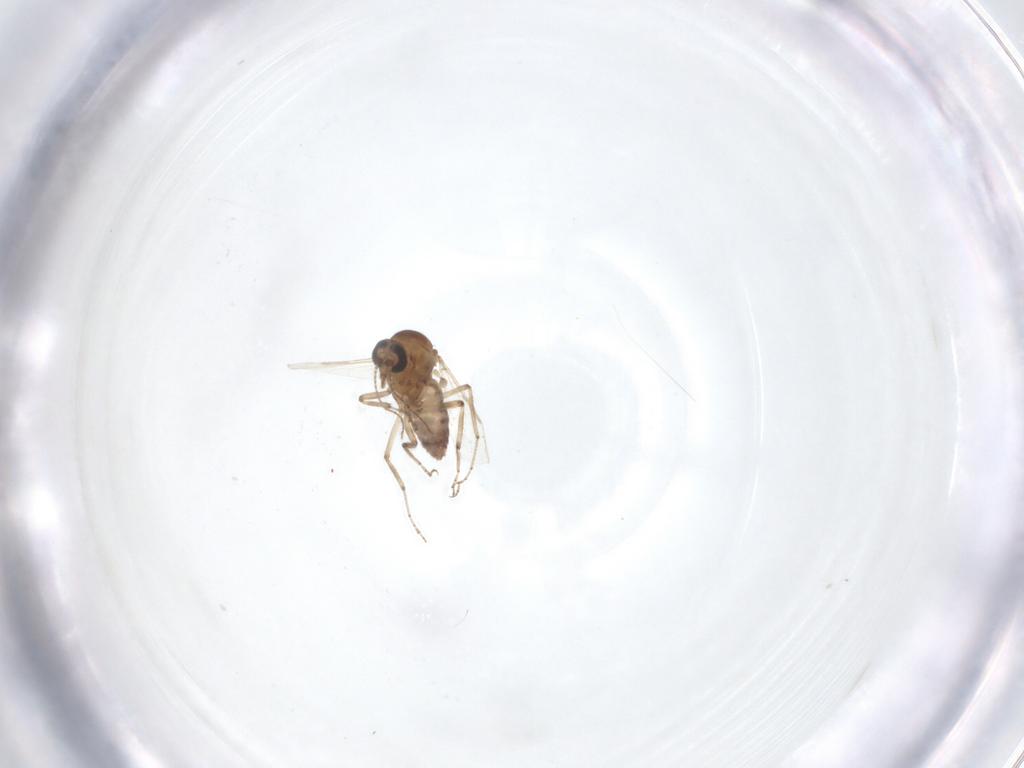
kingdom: Animalia
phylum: Arthropoda
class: Insecta
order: Diptera
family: Ceratopogonidae
